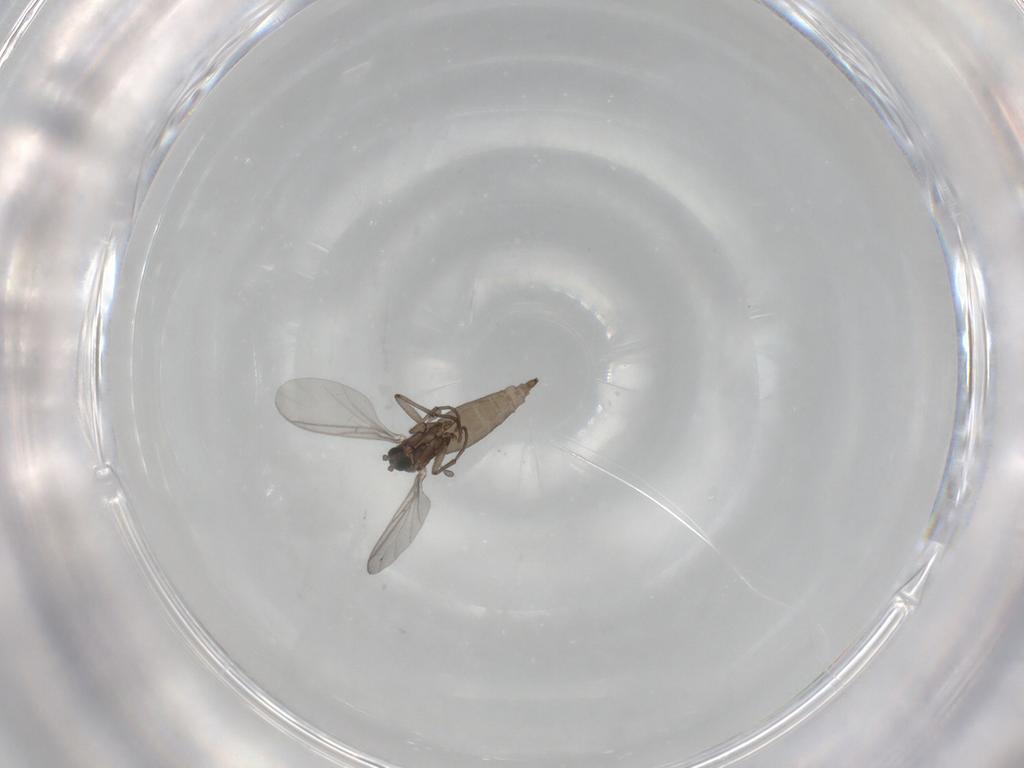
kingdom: Animalia
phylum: Arthropoda
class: Insecta
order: Diptera
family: Sciaridae
